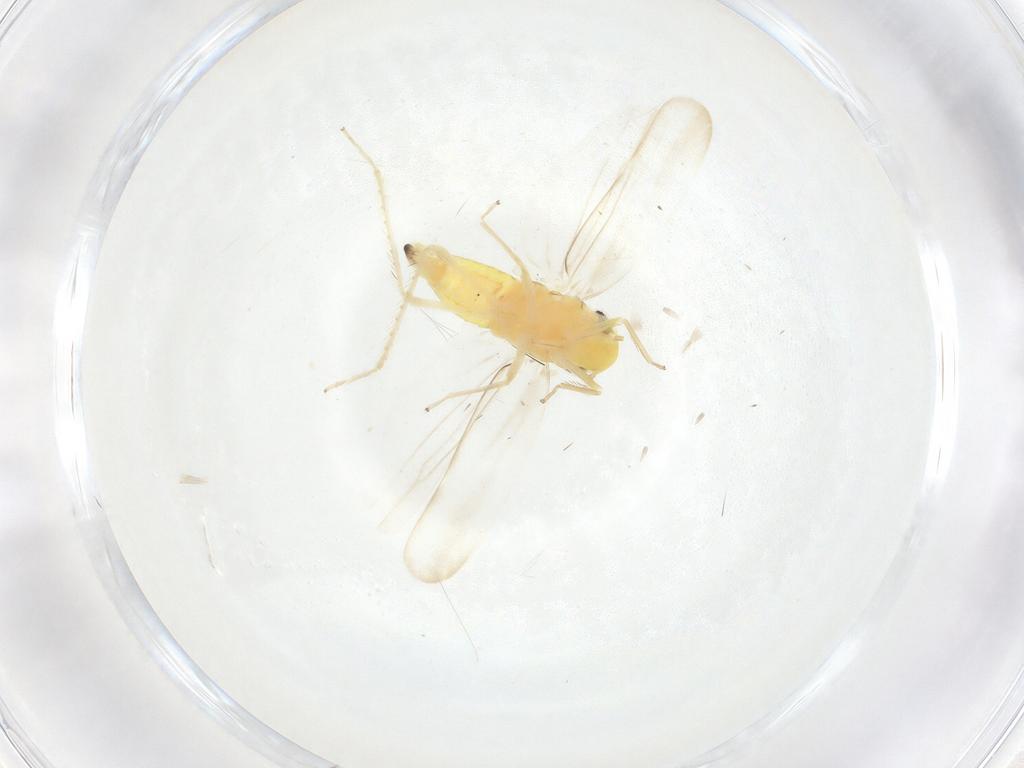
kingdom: Animalia
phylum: Arthropoda
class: Insecta
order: Hemiptera
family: Cicadellidae
